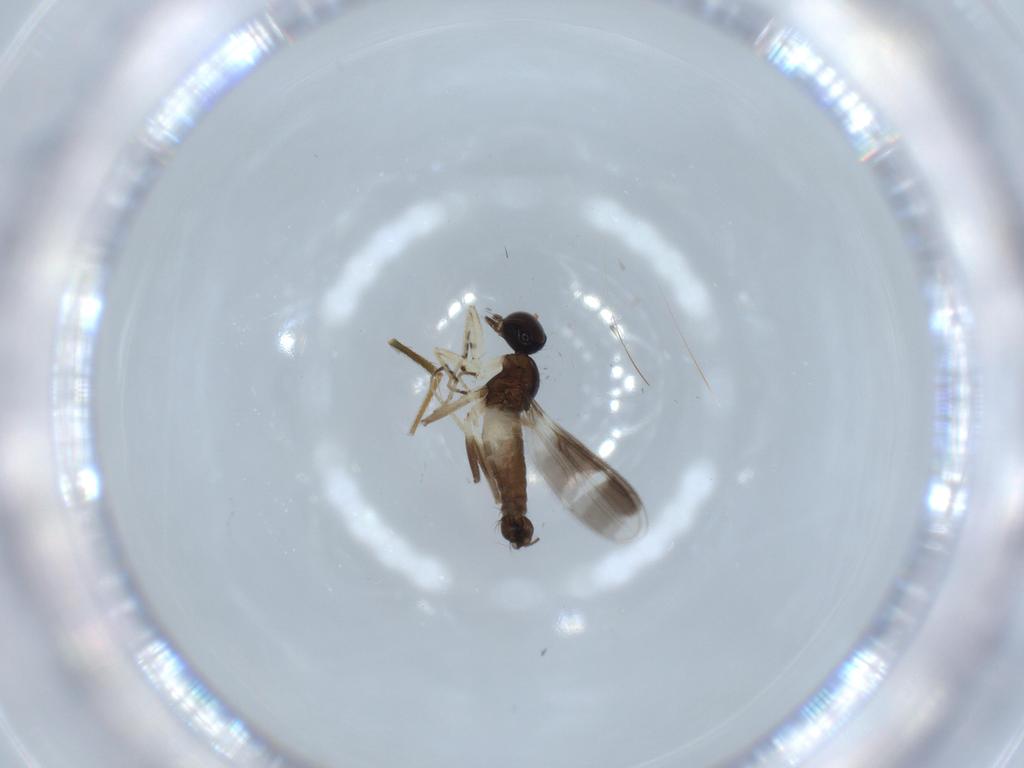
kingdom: Animalia
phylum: Arthropoda
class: Insecta
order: Diptera
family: Hybotidae
